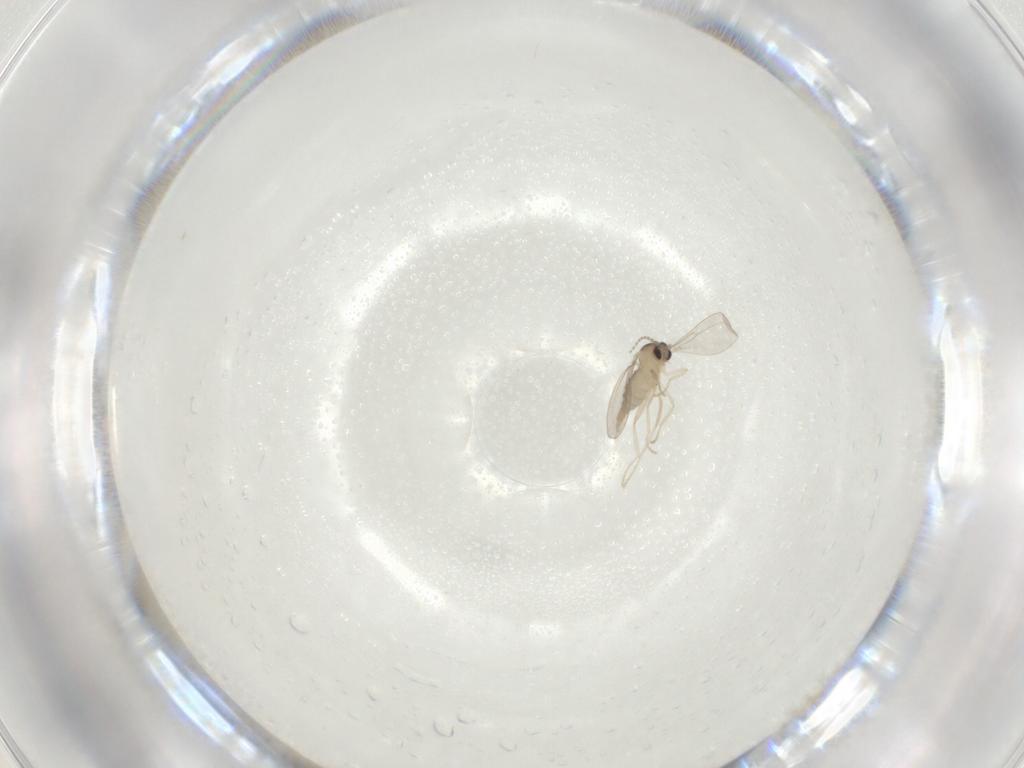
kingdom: Animalia
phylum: Arthropoda
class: Insecta
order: Diptera
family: Cecidomyiidae
